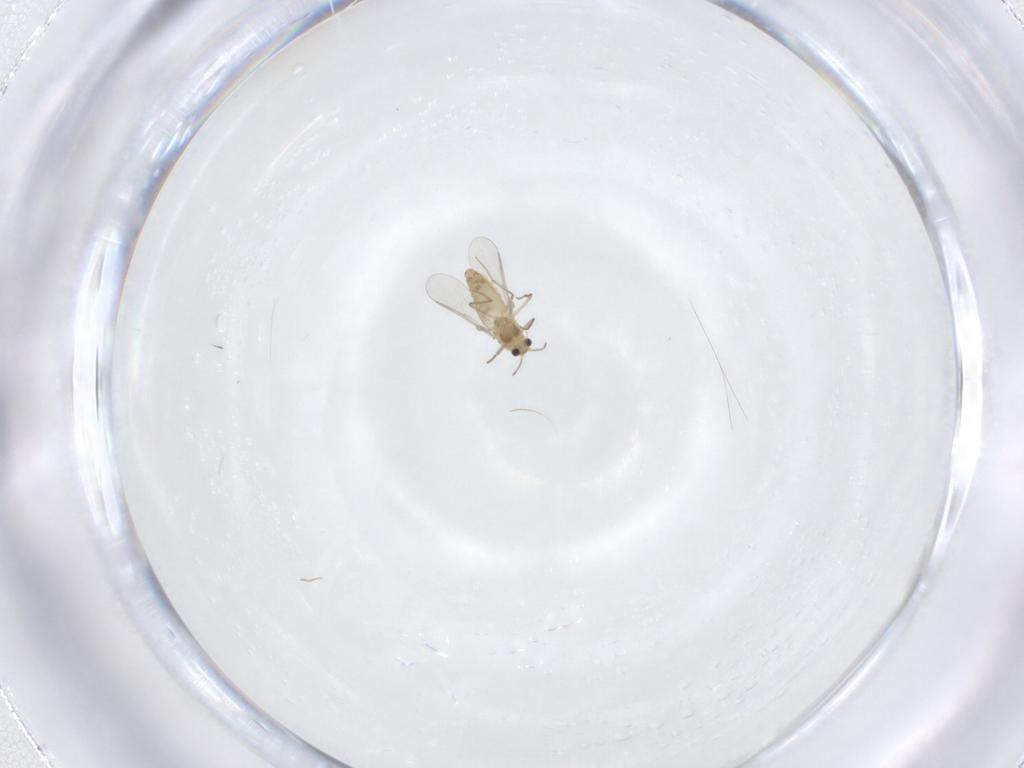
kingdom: Animalia
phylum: Arthropoda
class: Insecta
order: Diptera
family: Chironomidae
